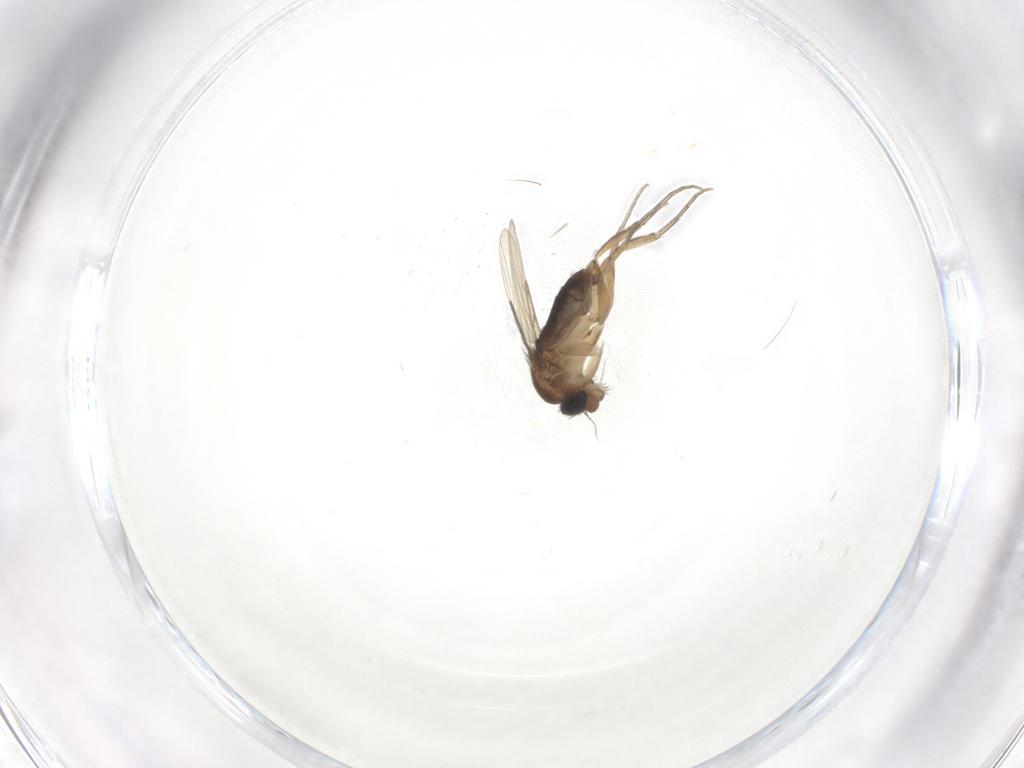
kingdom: Animalia
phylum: Arthropoda
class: Insecta
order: Diptera
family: Phoridae
